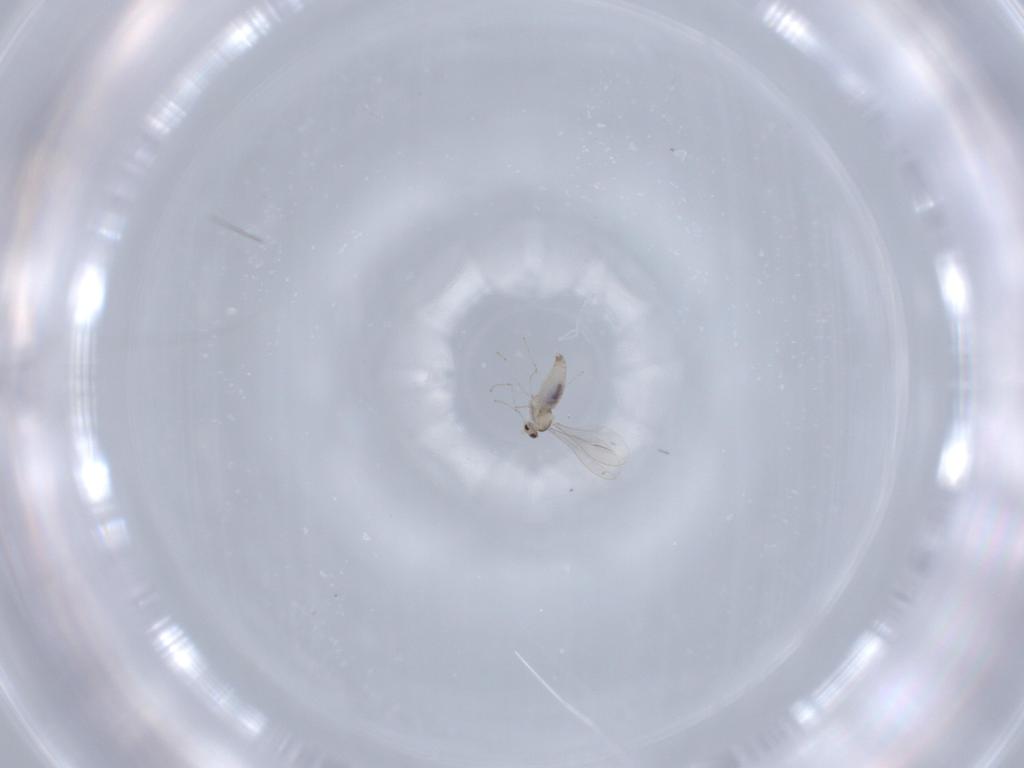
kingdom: Animalia
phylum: Arthropoda
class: Insecta
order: Diptera
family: Cecidomyiidae
